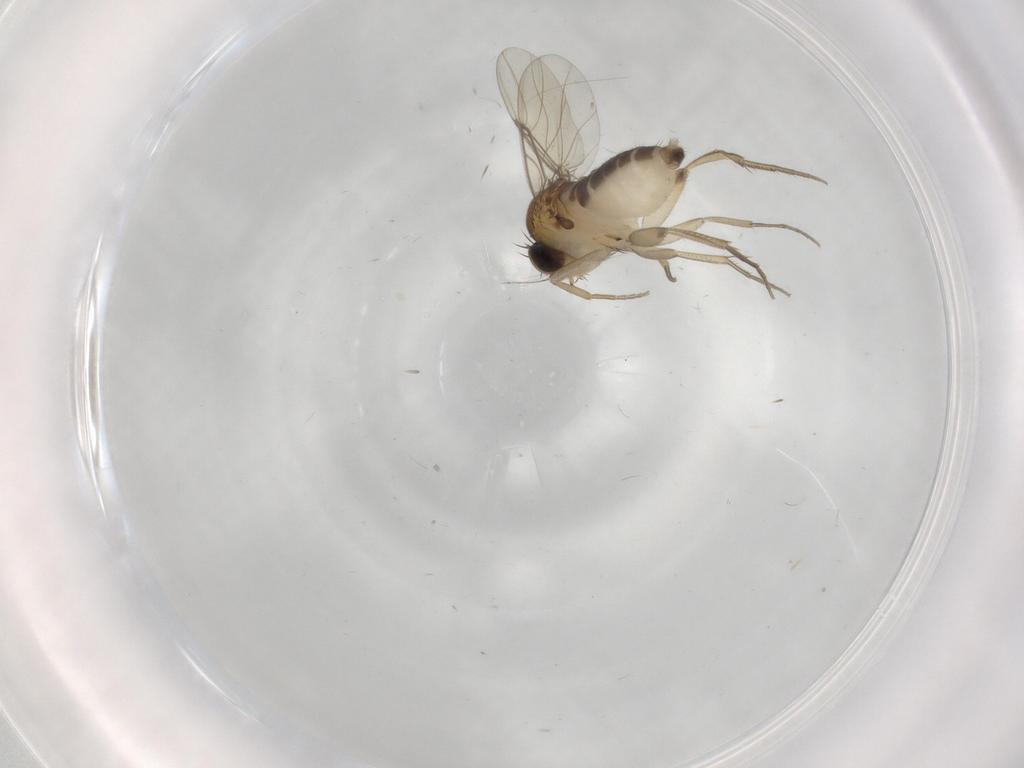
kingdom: Animalia
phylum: Arthropoda
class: Insecta
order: Diptera
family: Phoridae
